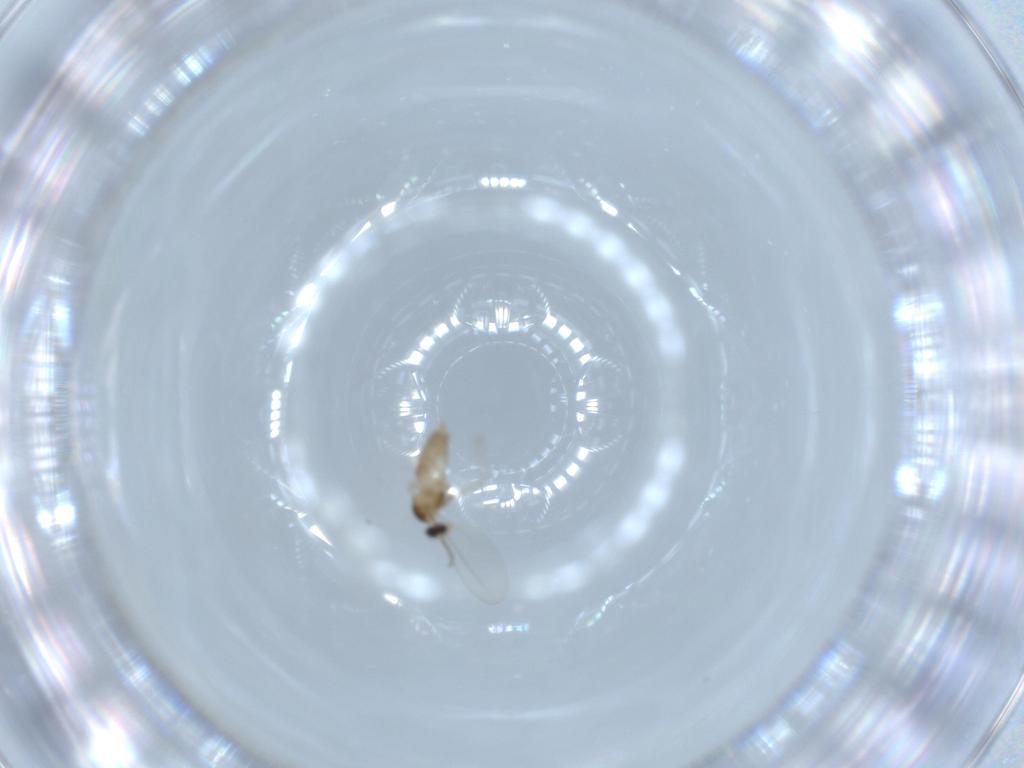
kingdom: Animalia
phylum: Arthropoda
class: Insecta
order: Diptera
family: Cecidomyiidae
